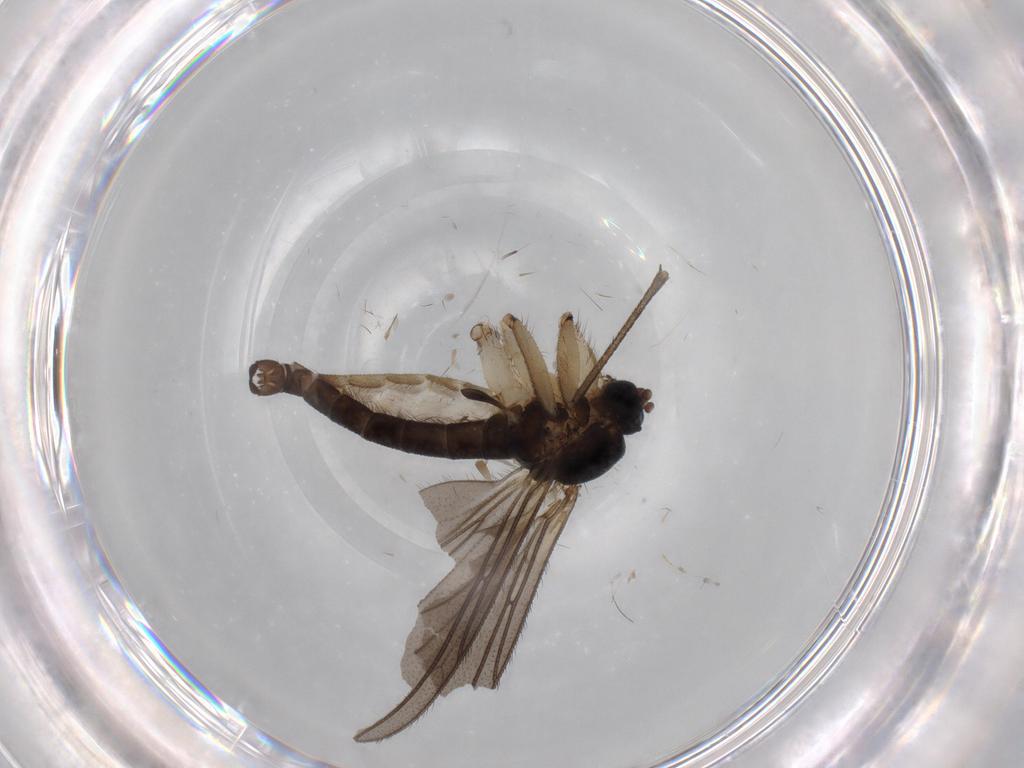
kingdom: Animalia
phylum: Arthropoda
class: Insecta
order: Diptera
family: Sciaridae
